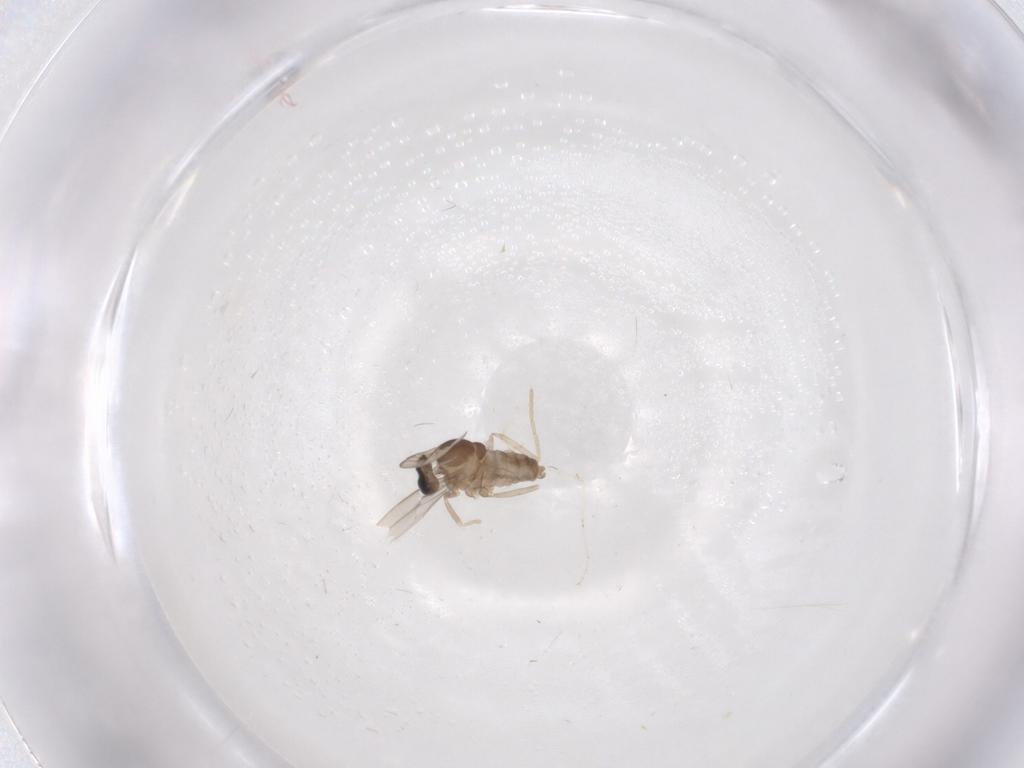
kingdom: Animalia
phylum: Arthropoda
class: Insecta
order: Diptera
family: Cecidomyiidae
